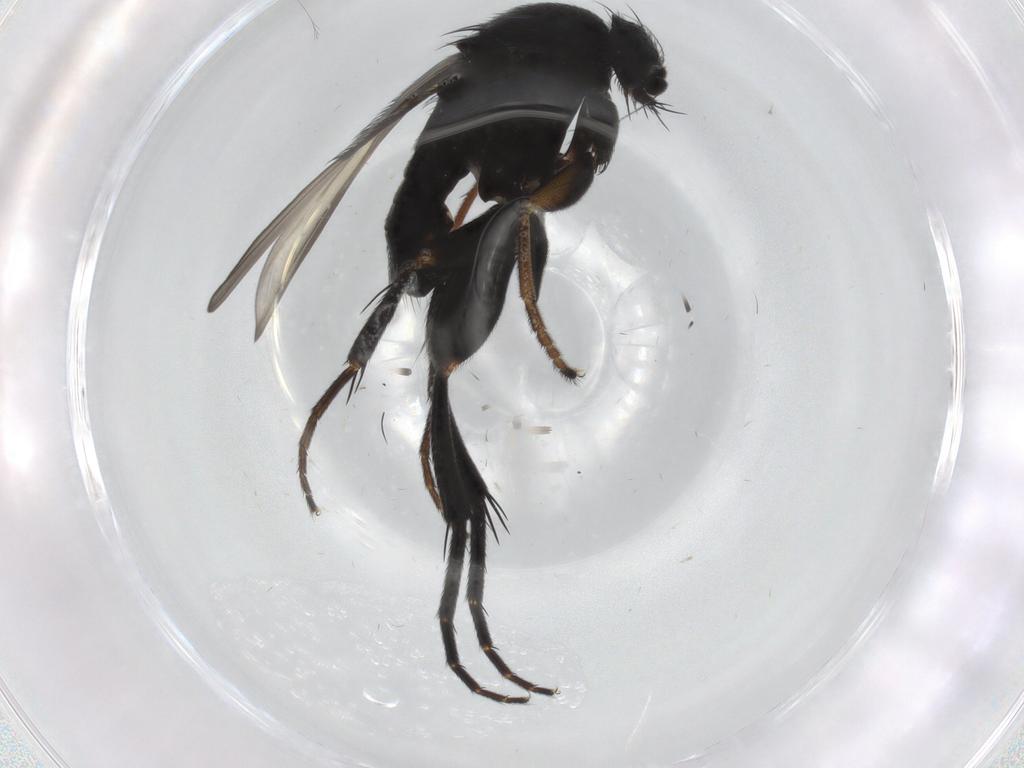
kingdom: Animalia
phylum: Arthropoda
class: Insecta
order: Diptera
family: Phoridae
